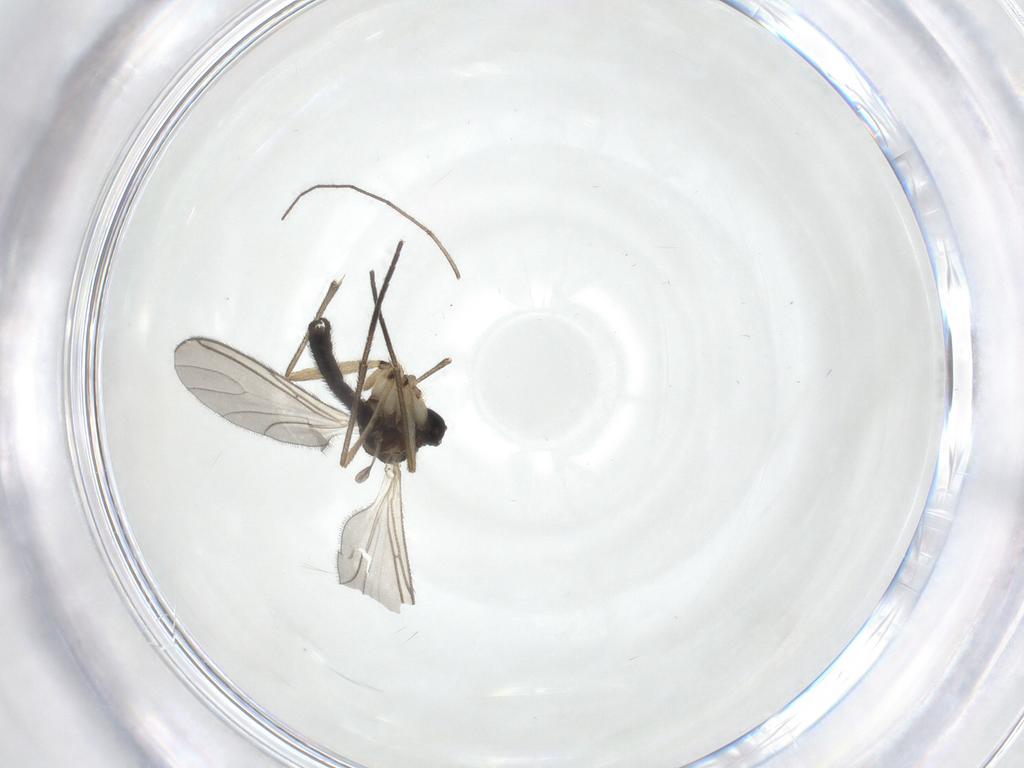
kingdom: Animalia
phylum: Arthropoda
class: Insecta
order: Diptera
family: Sciaridae
